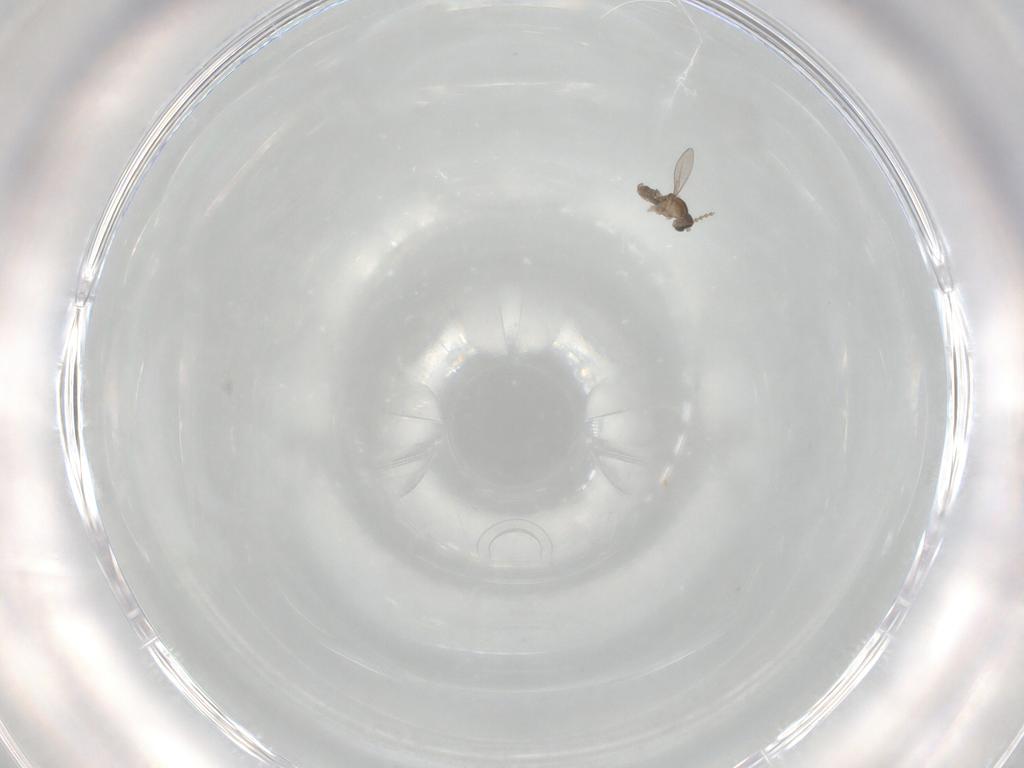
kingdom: Animalia
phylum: Arthropoda
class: Insecta
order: Diptera
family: Cecidomyiidae
